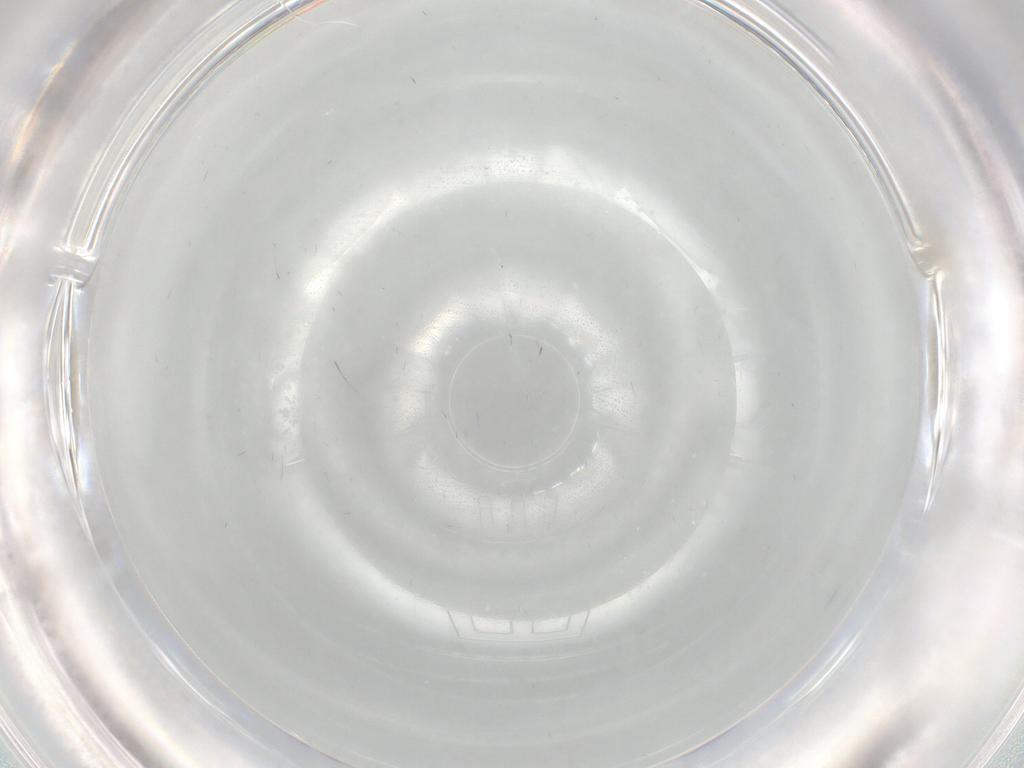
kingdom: Animalia
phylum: Arthropoda
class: Insecta
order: Diptera
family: Cecidomyiidae
